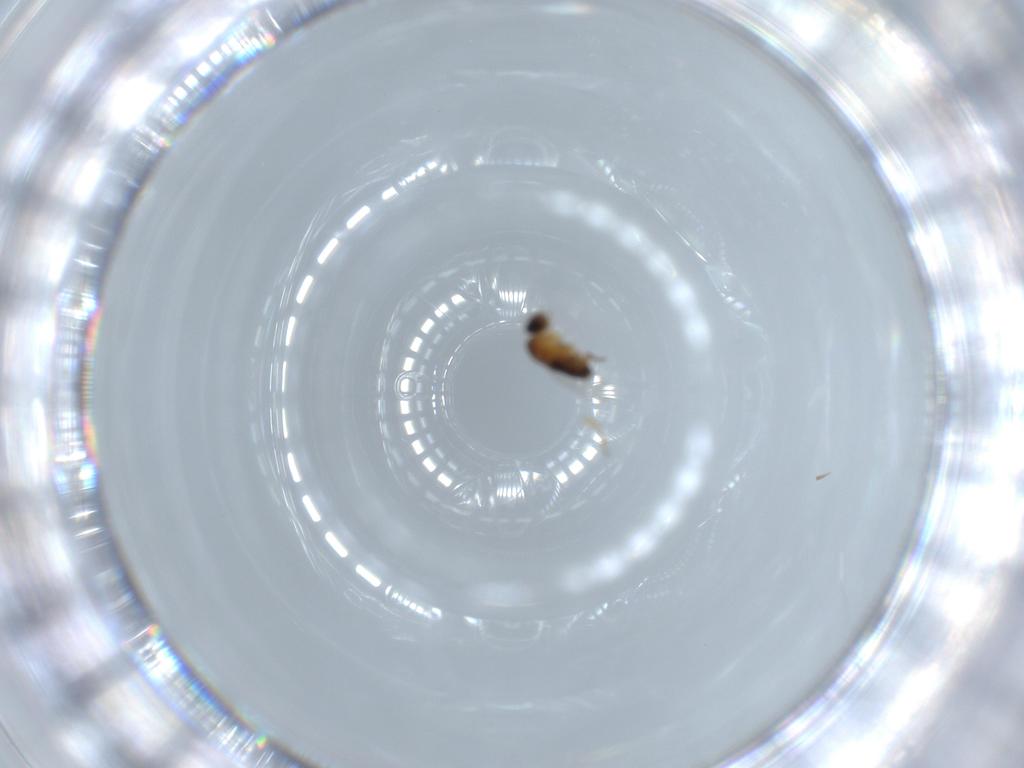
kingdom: Animalia
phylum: Arthropoda
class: Insecta
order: Diptera
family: Phoridae
